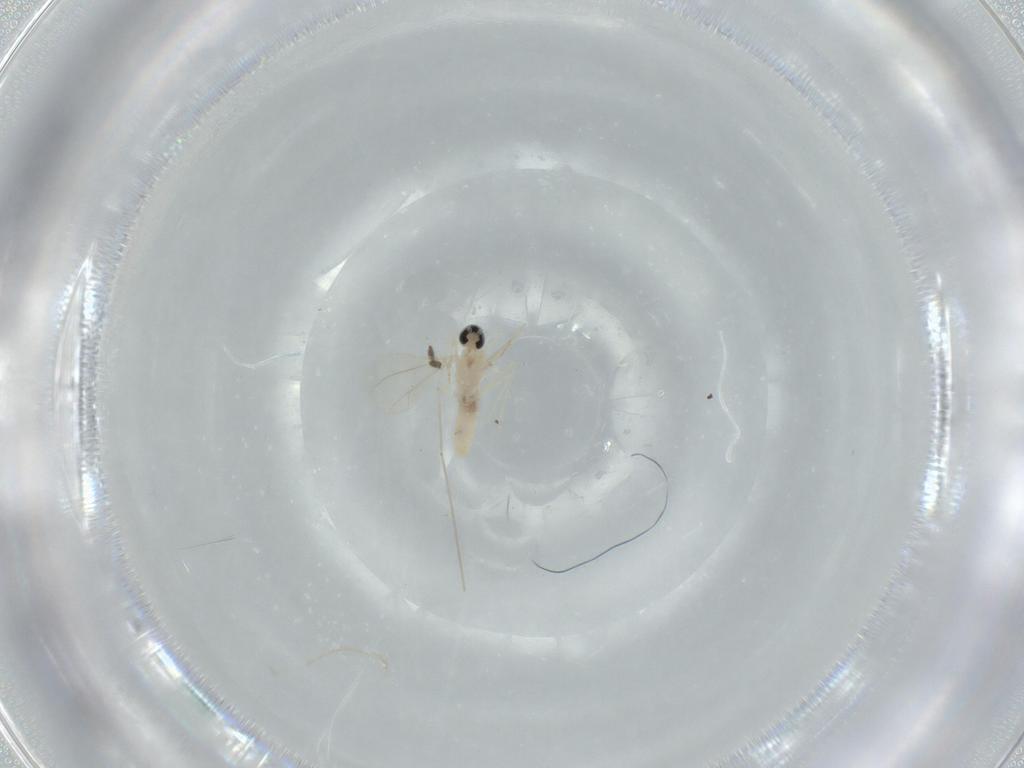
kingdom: Animalia
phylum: Arthropoda
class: Insecta
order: Diptera
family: Cecidomyiidae
